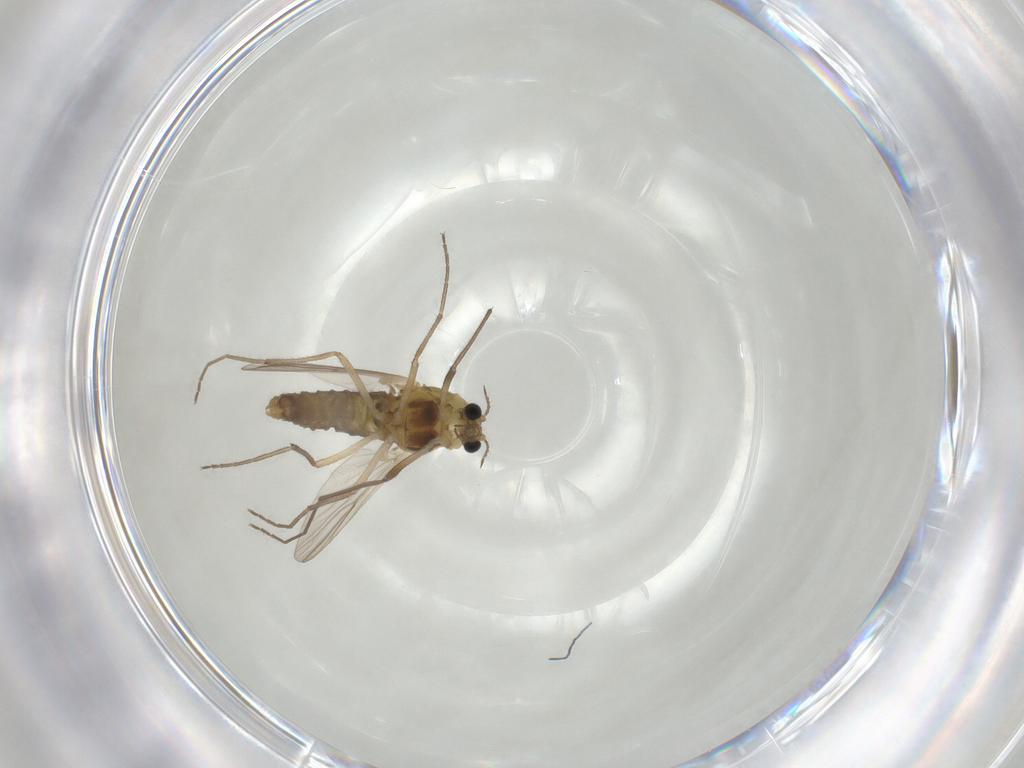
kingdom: Animalia
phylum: Arthropoda
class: Insecta
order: Diptera
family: Chironomidae
